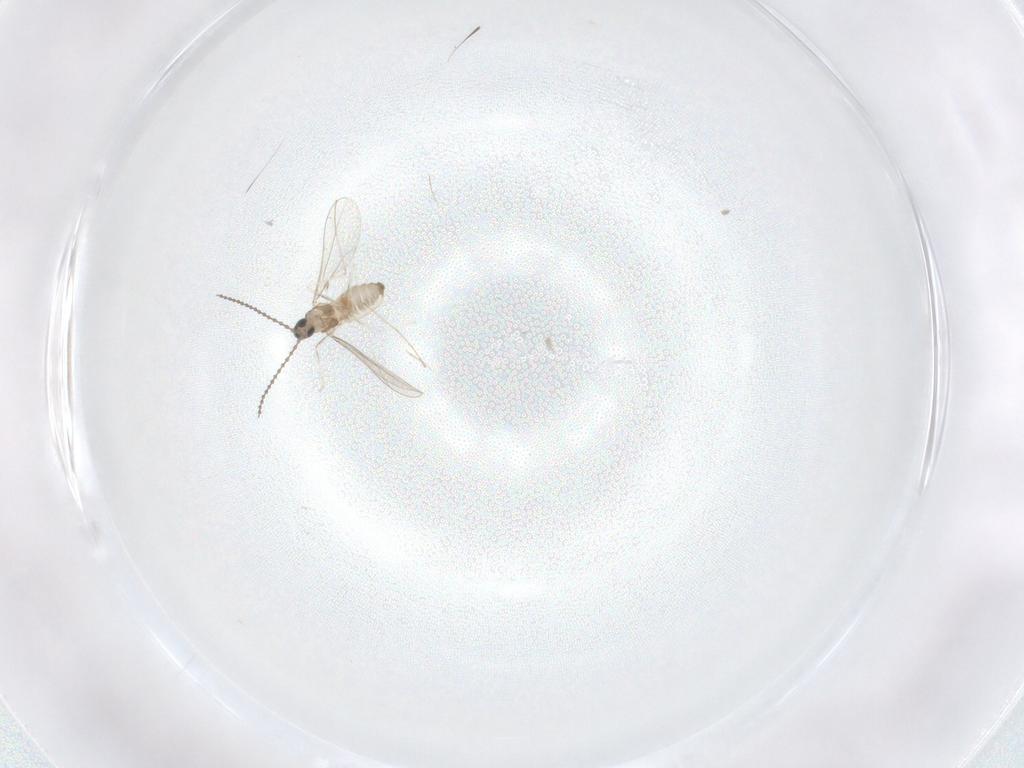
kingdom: Animalia
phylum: Arthropoda
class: Insecta
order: Diptera
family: Cecidomyiidae
